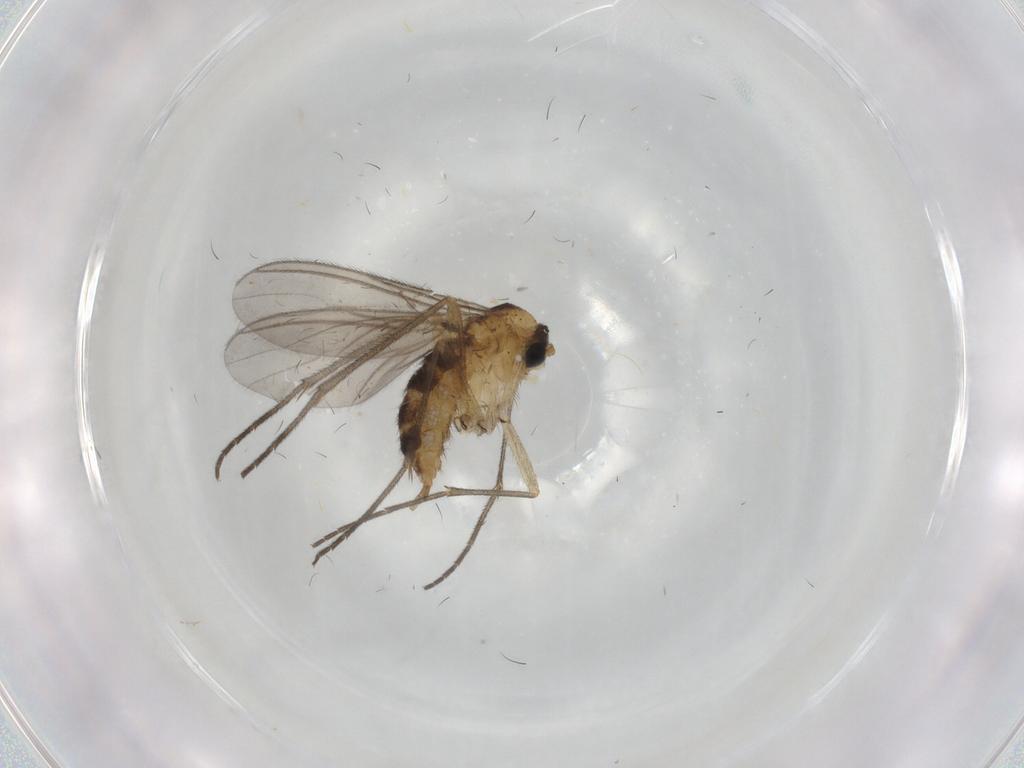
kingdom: Animalia
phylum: Arthropoda
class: Insecta
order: Diptera
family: Sciaridae
